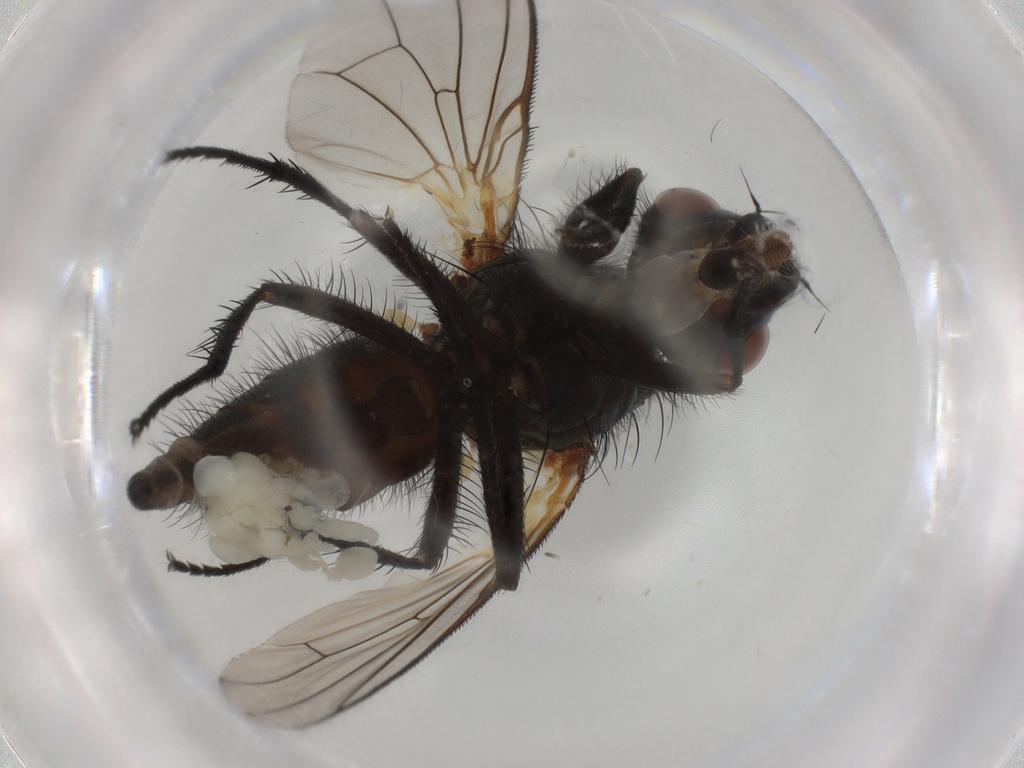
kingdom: Animalia
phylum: Arthropoda
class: Insecta
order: Diptera
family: Anthomyiidae
